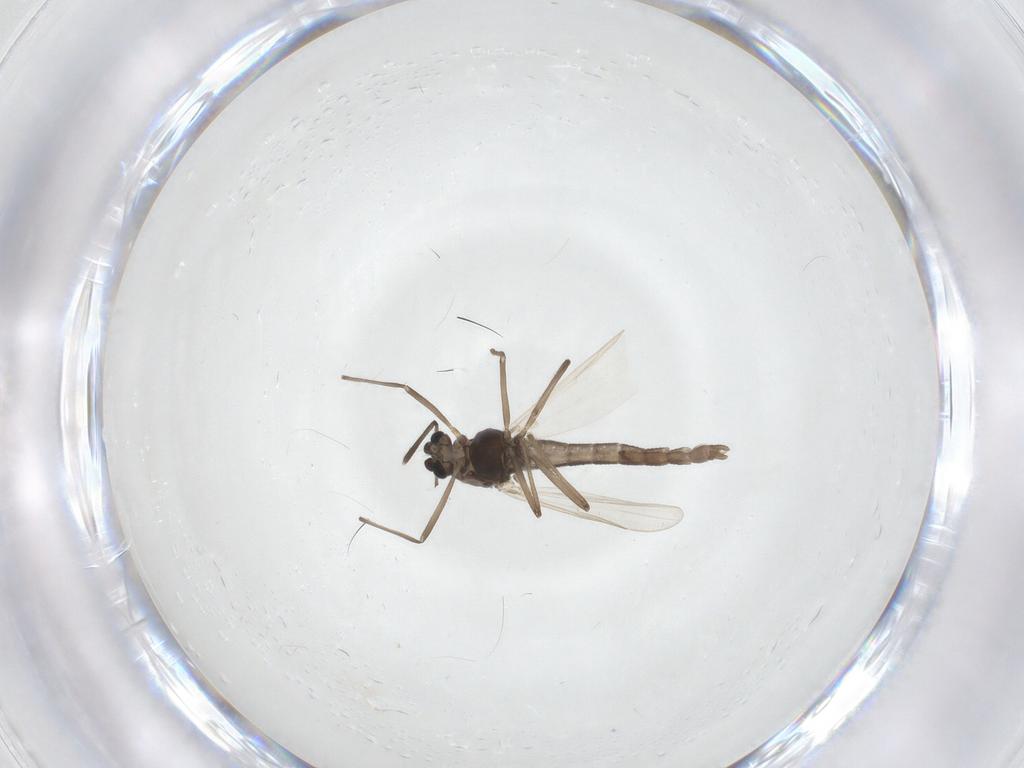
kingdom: Animalia
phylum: Arthropoda
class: Insecta
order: Diptera
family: Chironomidae
